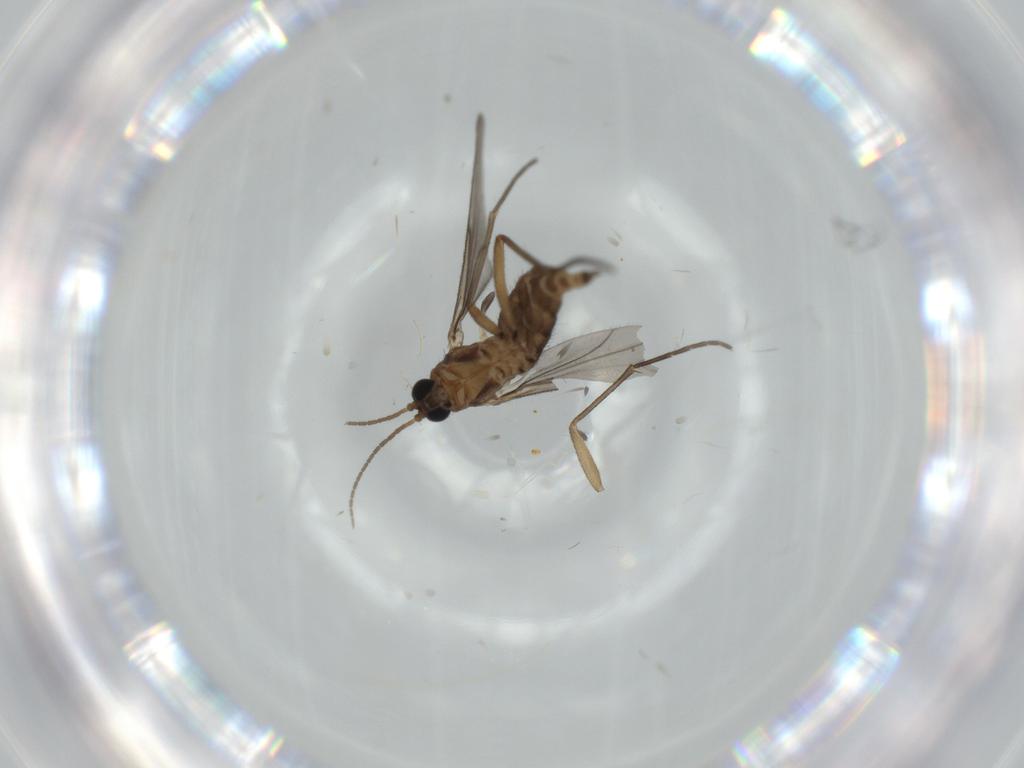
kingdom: Animalia
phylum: Arthropoda
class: Insecta
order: Diptera
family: Sciaridae
